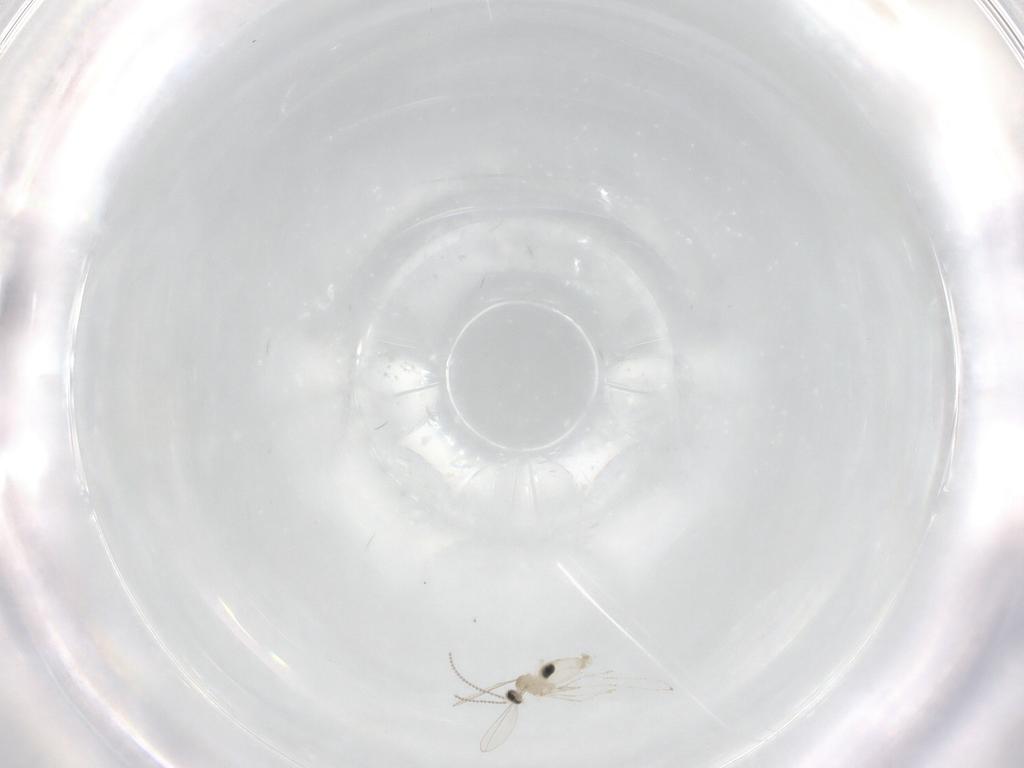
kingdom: Animalia
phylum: Arthropoda
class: Insecta
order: Diptera
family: Cecidomyiidae
